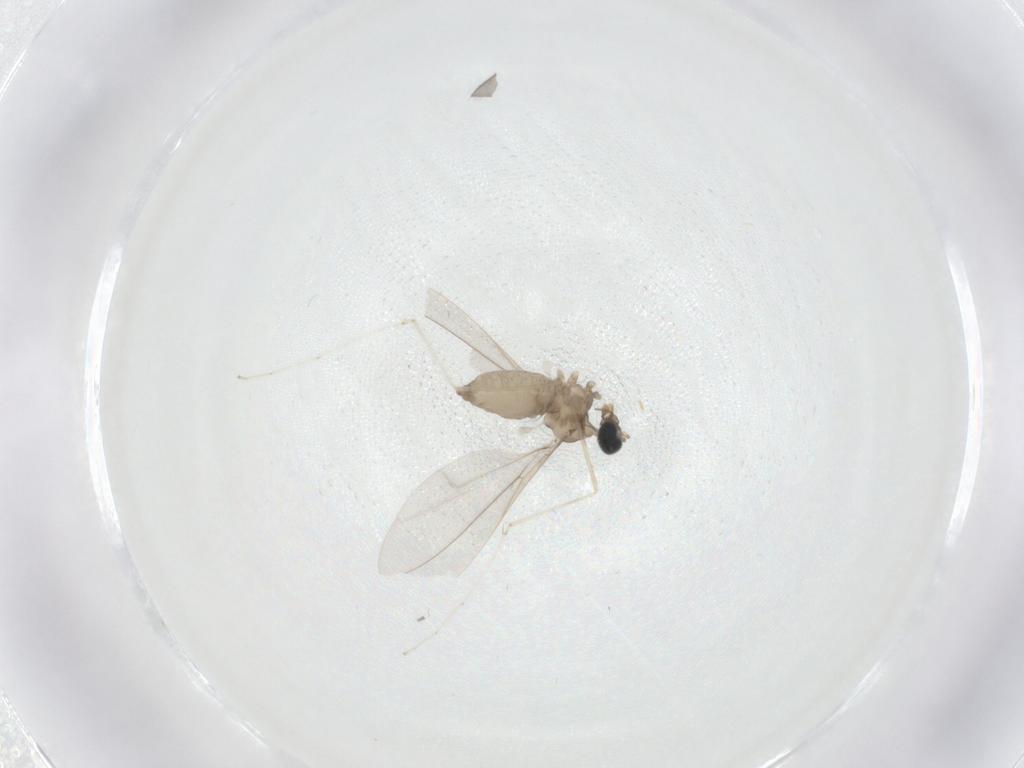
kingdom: Animalia
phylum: Arthropoda
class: Insecta
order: Diptera
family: Cecidomyiidae
